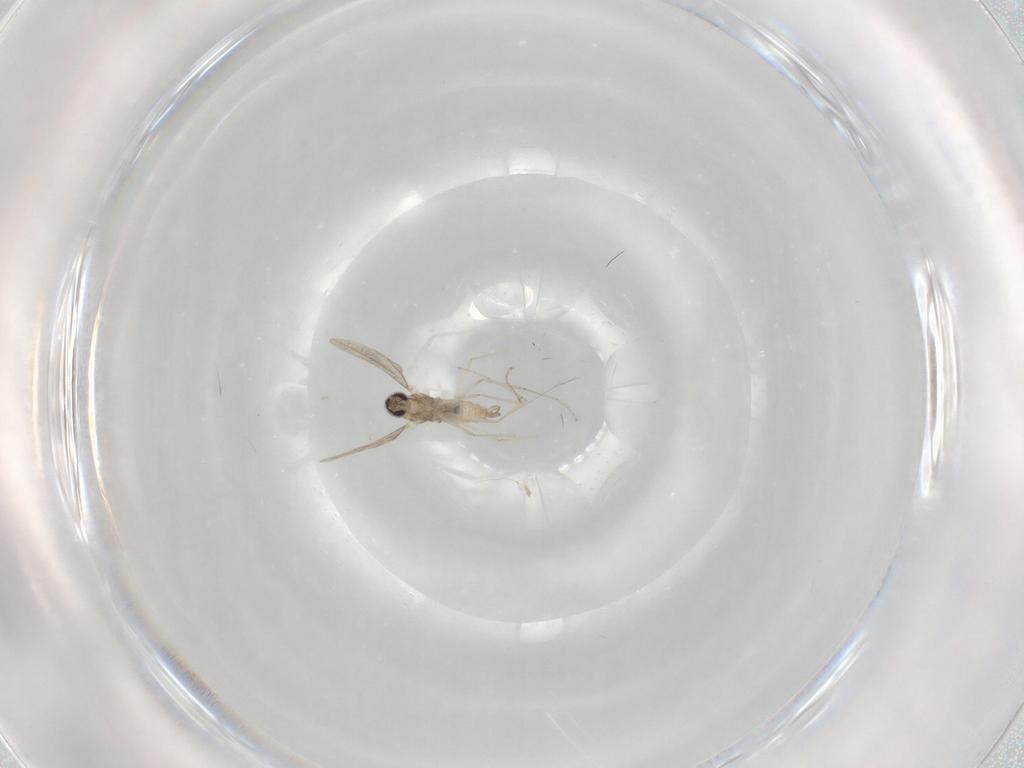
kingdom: Animalia
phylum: Arthropoda
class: Insecta
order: Diptera
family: Cecidomyiidae
